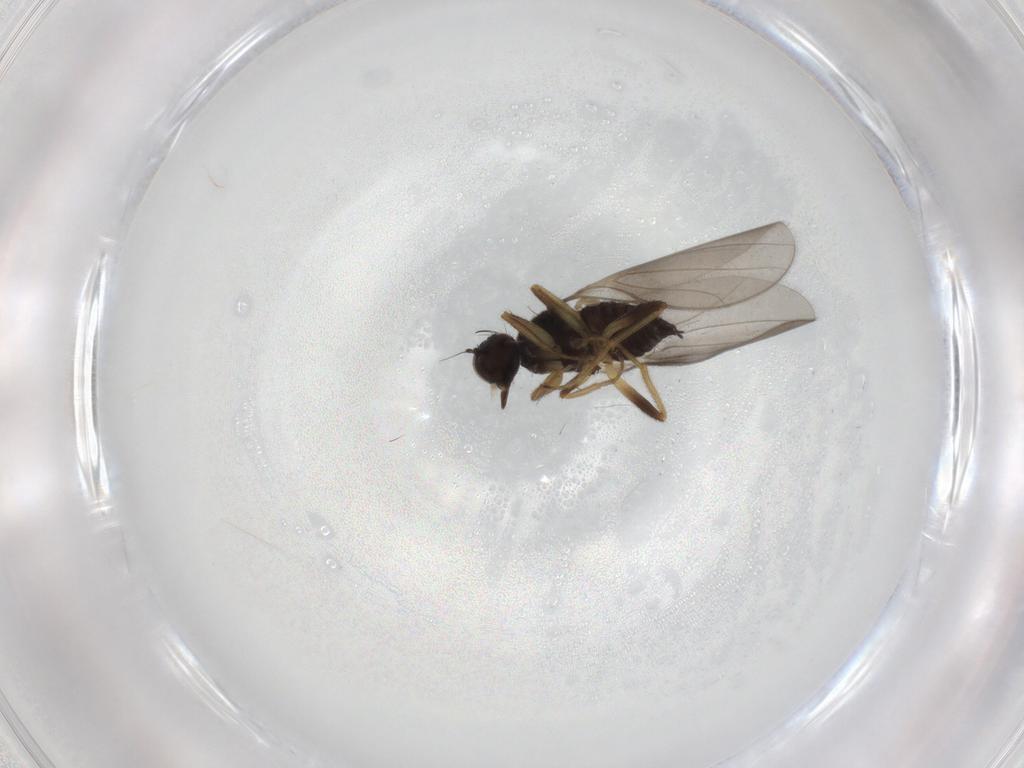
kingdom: Animalia
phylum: Arthropoda
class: Insecta
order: Diptera
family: Hybotidae
